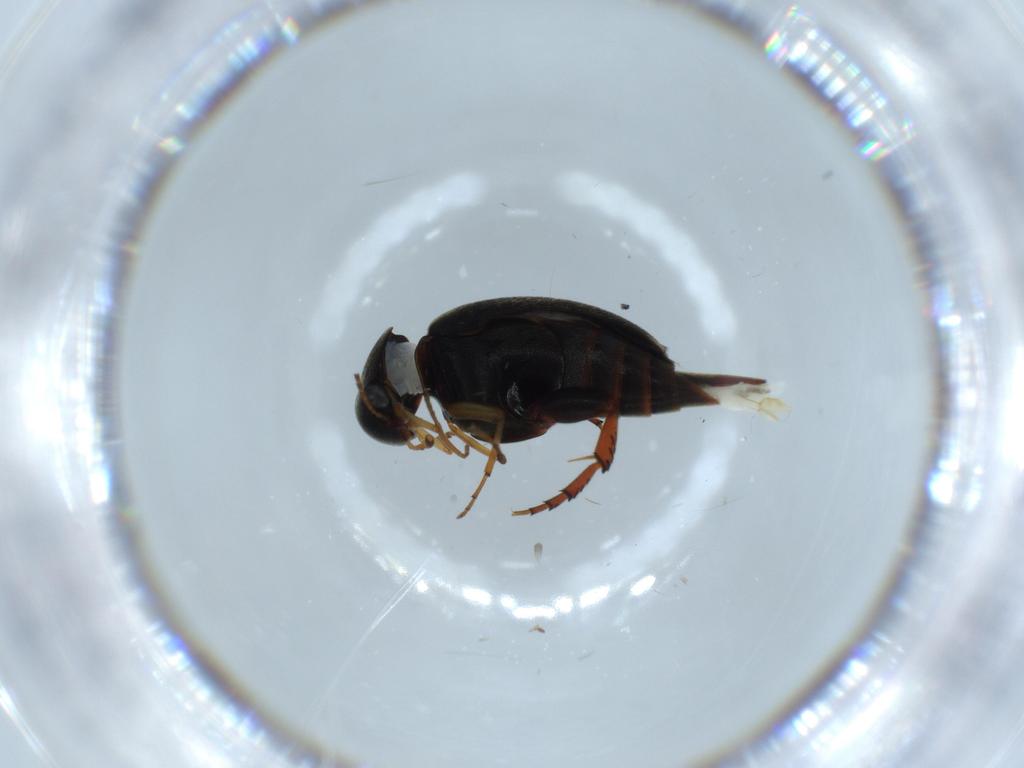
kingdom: Animalia
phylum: Arthropoda
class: Insecta
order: Coleoptera
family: Mordellidae
